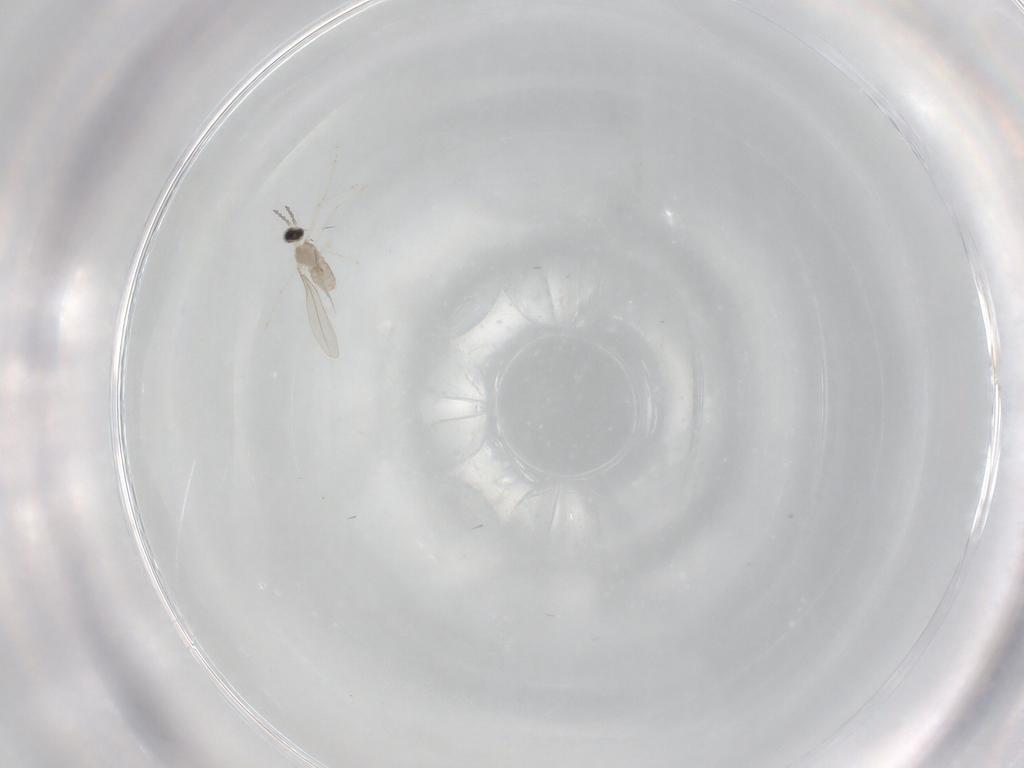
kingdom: Animalia
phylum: Arthropoda
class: Insecta
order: Diptera
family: Cecidomyiidae
